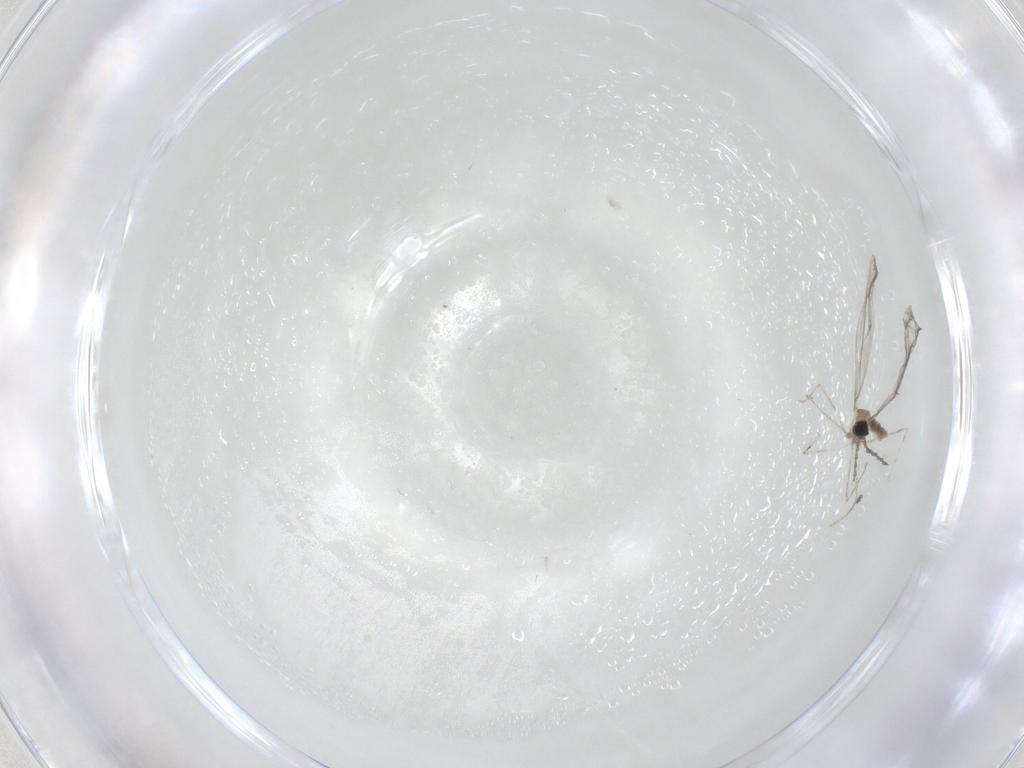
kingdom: Animalia
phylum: Arthropoda
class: Insecta
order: Diptera
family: Cecidomyiidae
